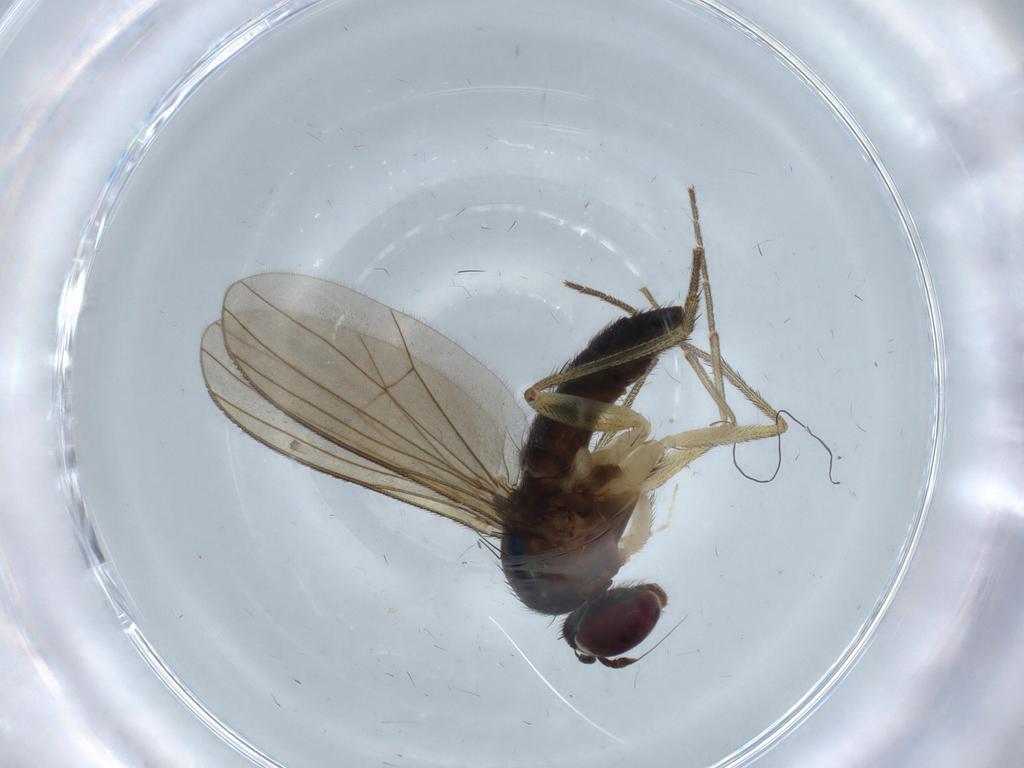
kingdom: Animalia
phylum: Arthropoda
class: Insecta
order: Diptera
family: Chironomidae
